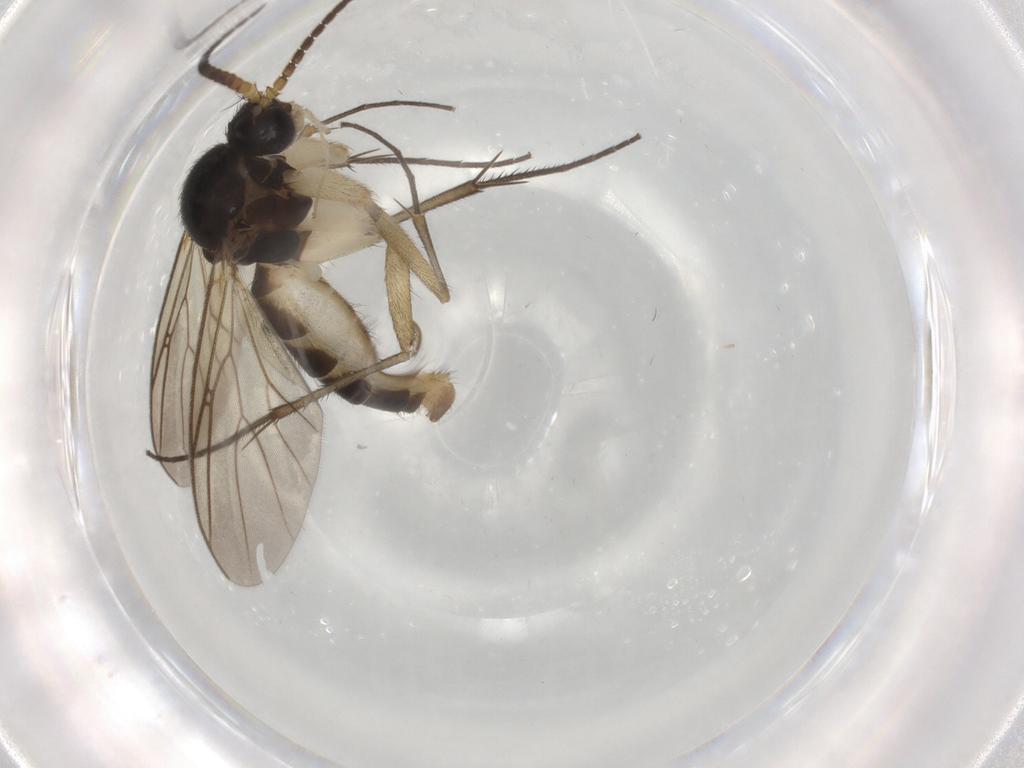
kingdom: Animalia
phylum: Arthropoda
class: Insecta
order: Diptera
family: Mycetophilidae
